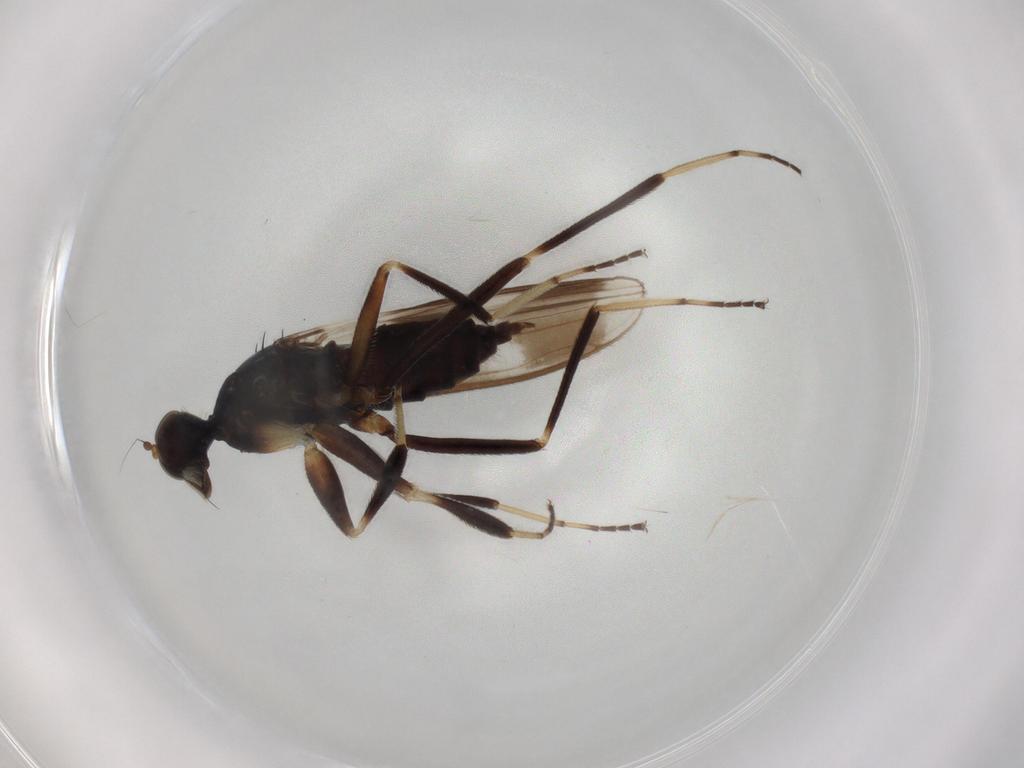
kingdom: Animalia
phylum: Arthropoda
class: Insecta
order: Diptera
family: Hybotidae
